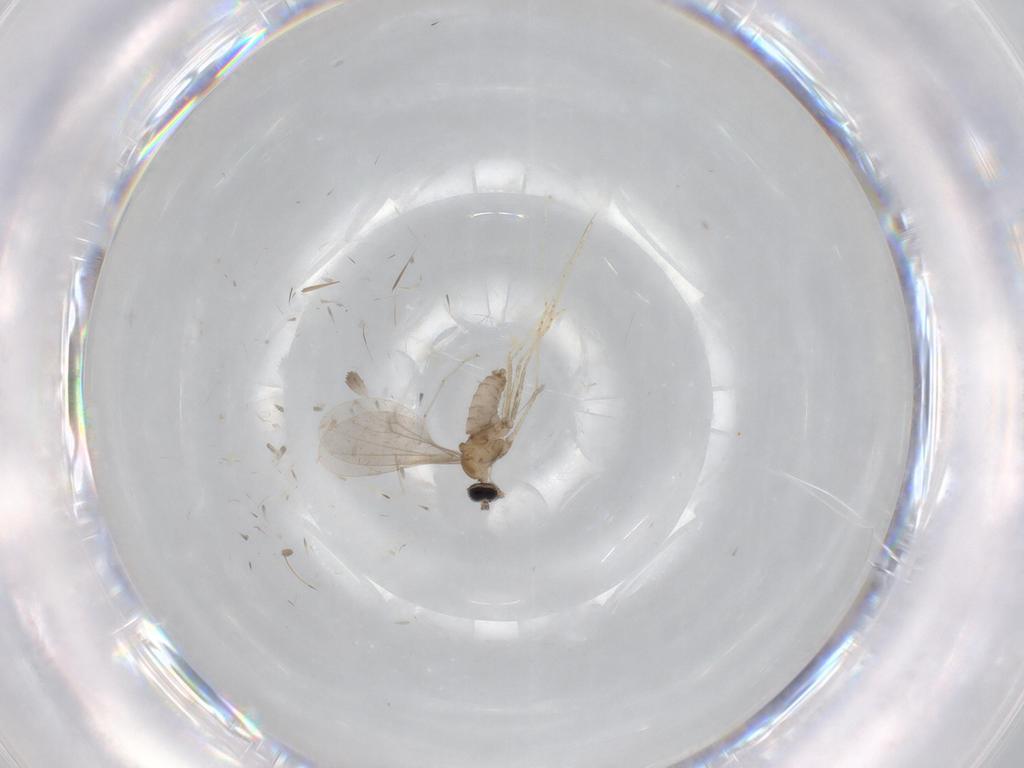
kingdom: Animalia
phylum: Arthropoda
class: Insecta
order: Diptera
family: Cecidomyiidae
